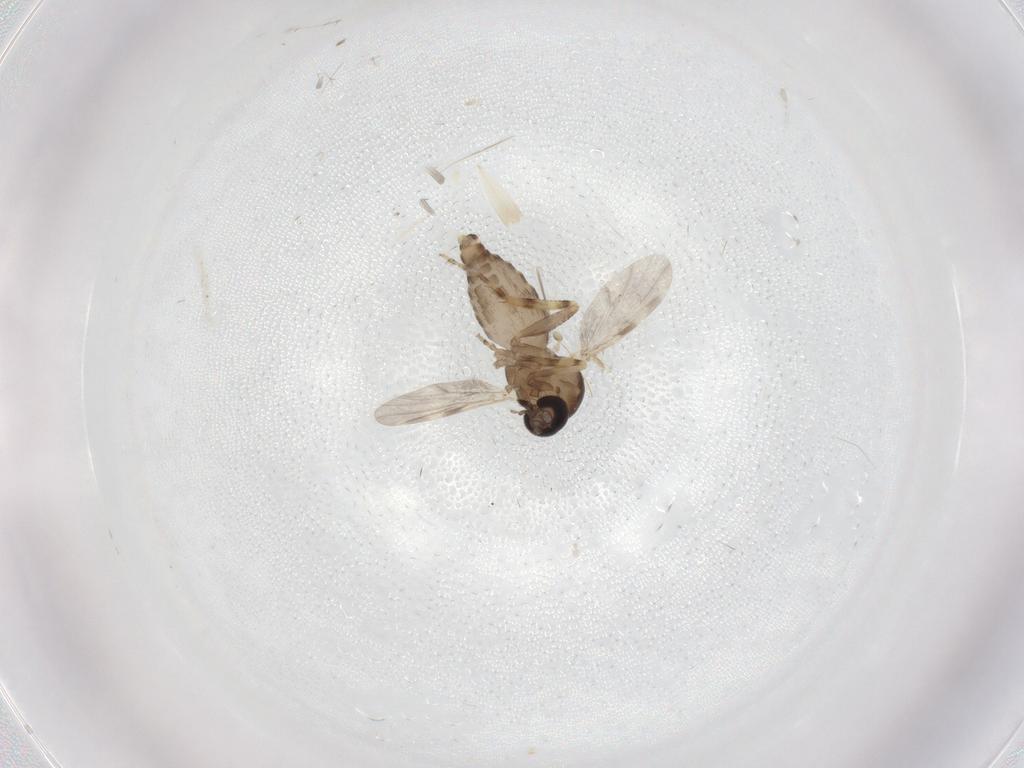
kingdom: Animalia
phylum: Arthropoda
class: Insecta
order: Diptera
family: Ceratopogonidae
